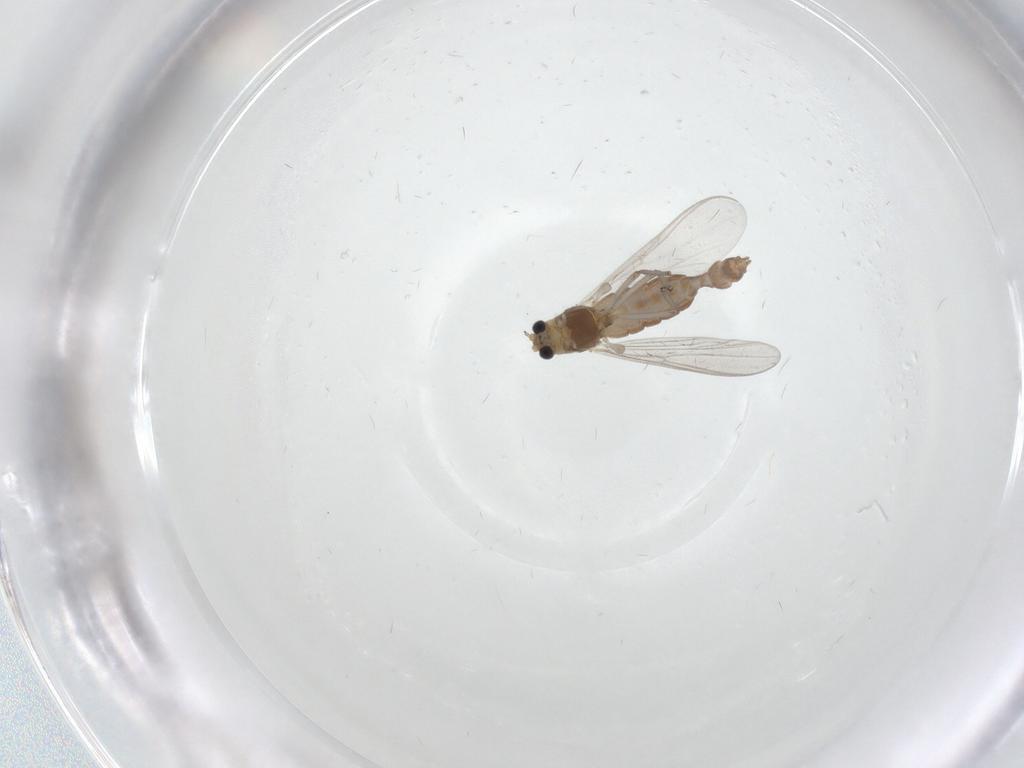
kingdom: Animalia
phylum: Arthropoda
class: Insecta
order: Diptera
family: Chironomidae
